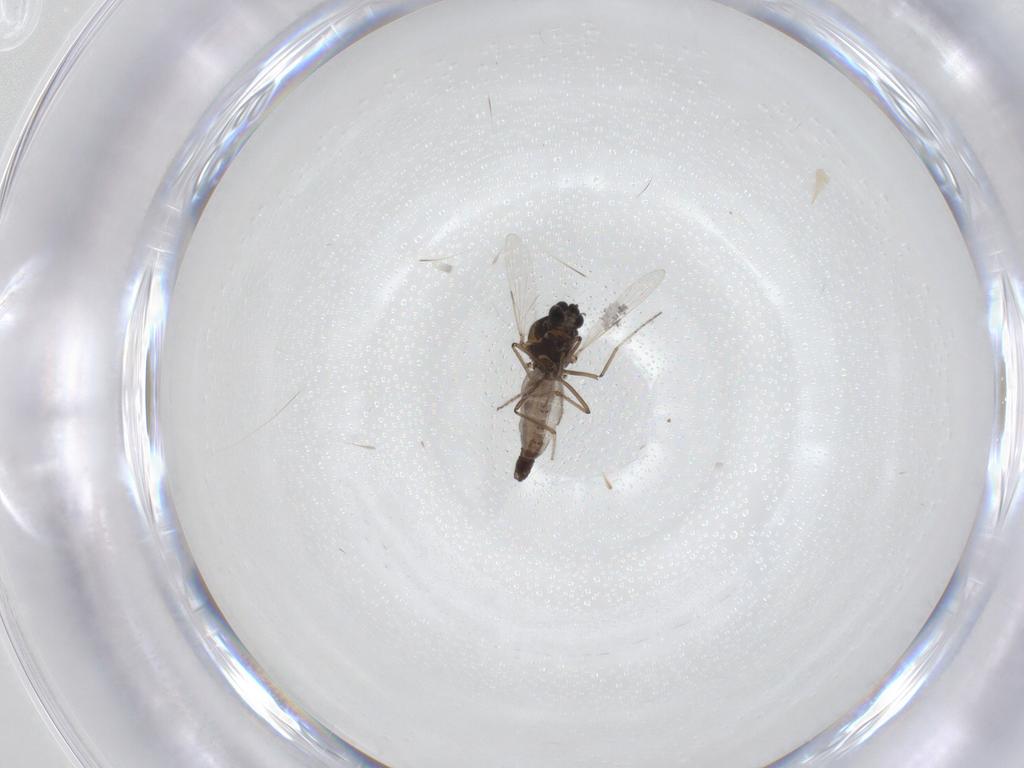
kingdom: Animalia
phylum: Arthropoda
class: Insecta
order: Diptera
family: Ceratopogonidae
